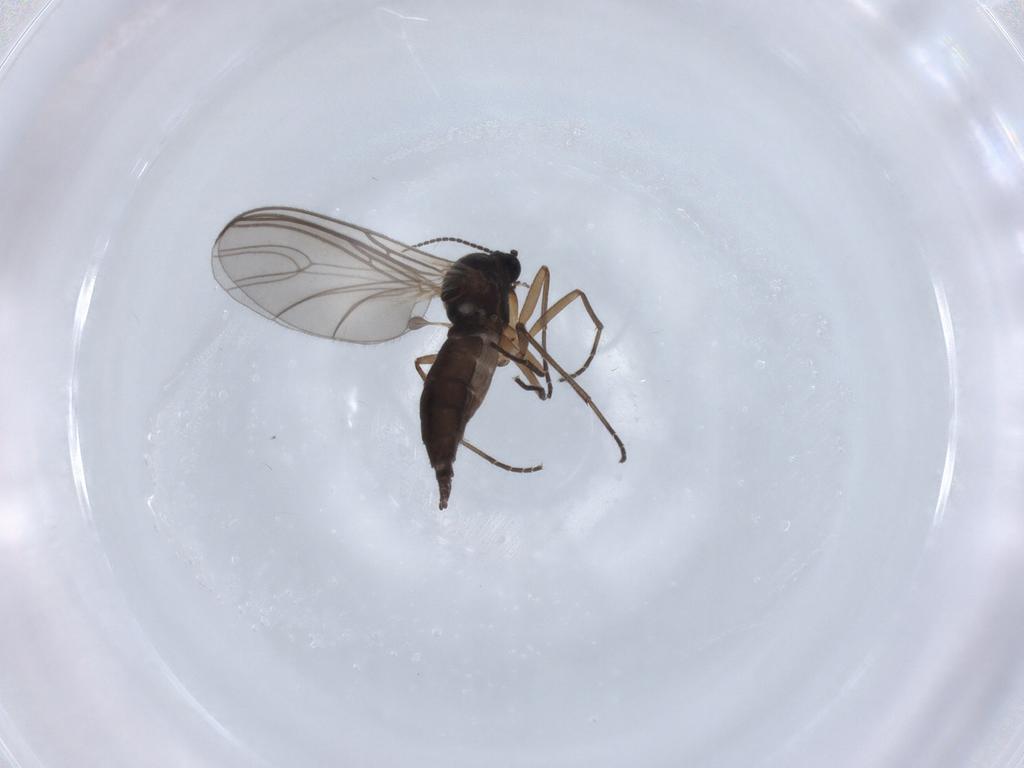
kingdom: Animalia
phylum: Arthropoda
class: Insecta
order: Diptera
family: Sciaridae
